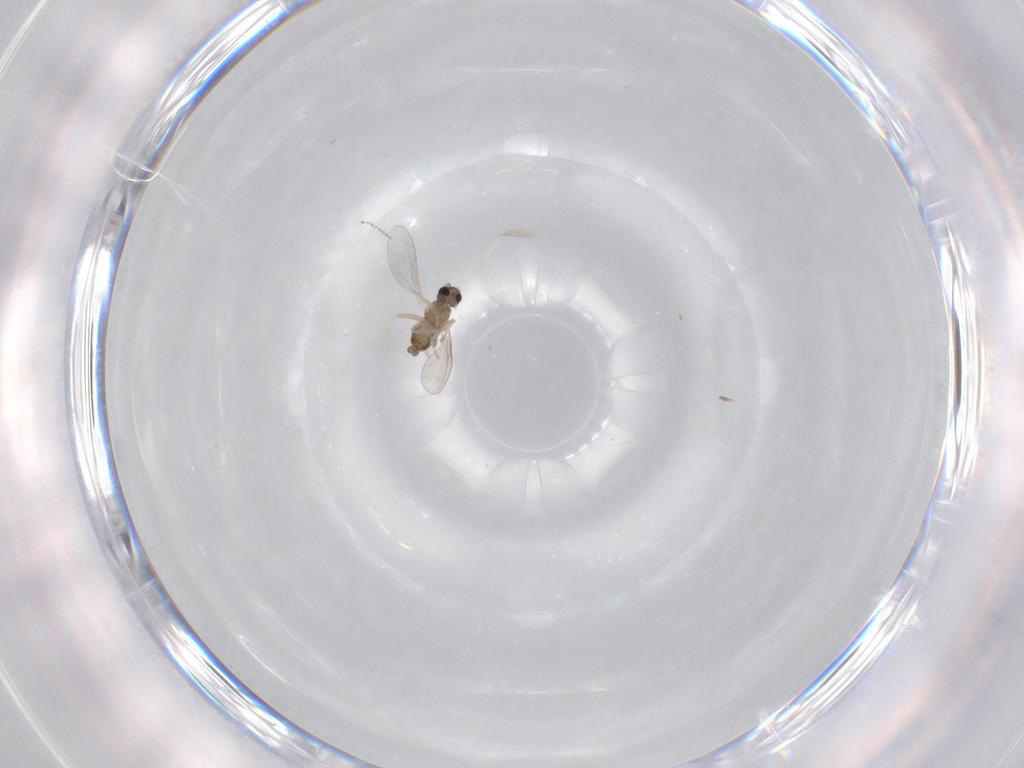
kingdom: Animalia
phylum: Arthropoda
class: Insecta
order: Diptera
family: Cecidomyiidae
